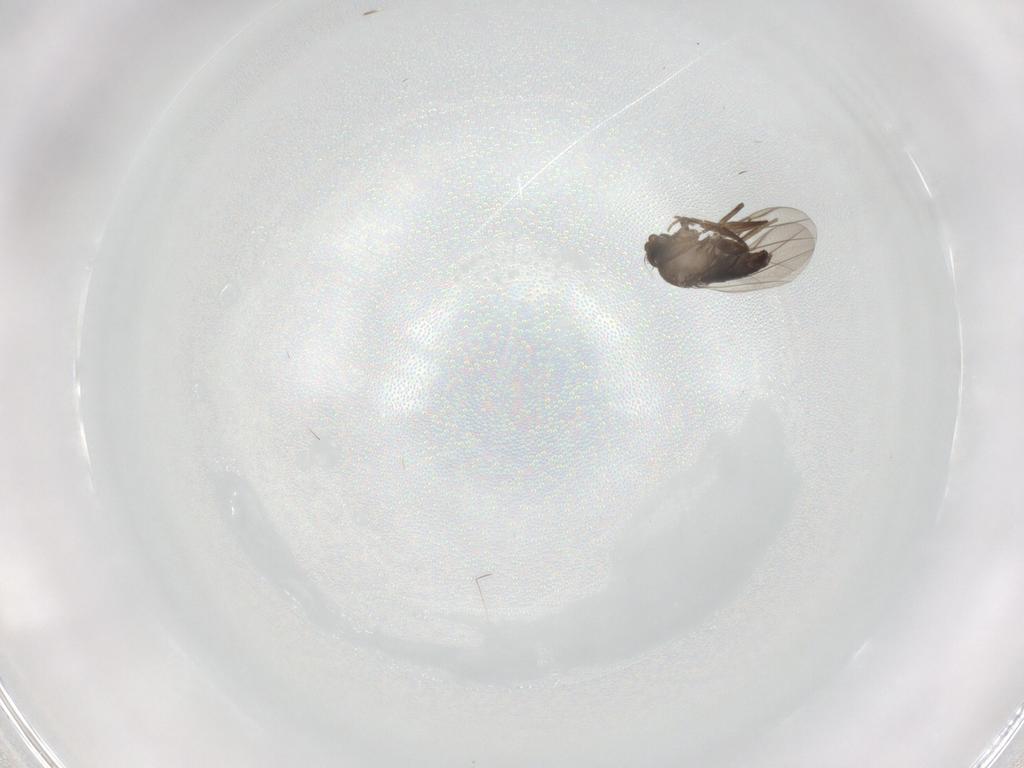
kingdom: Animalia
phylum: Arthropoda
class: Insecta
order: Diptera
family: Phoridae
